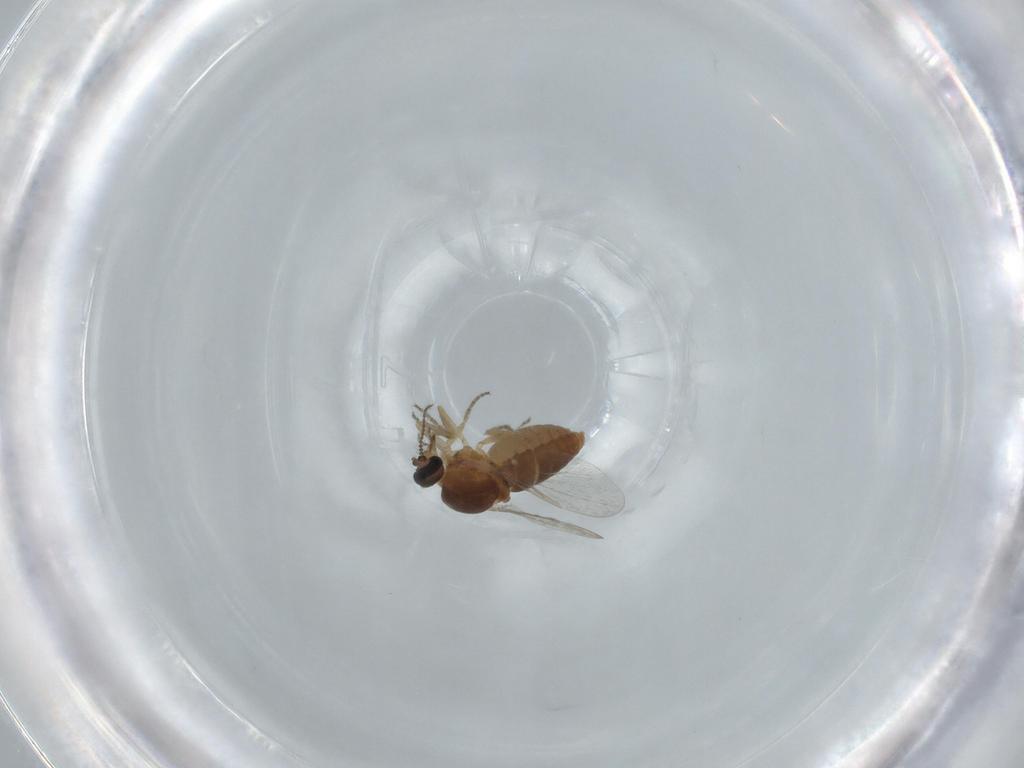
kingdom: Animalia
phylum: Arthropoda
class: Insecta
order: Diptera
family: Ceratopogonidae
